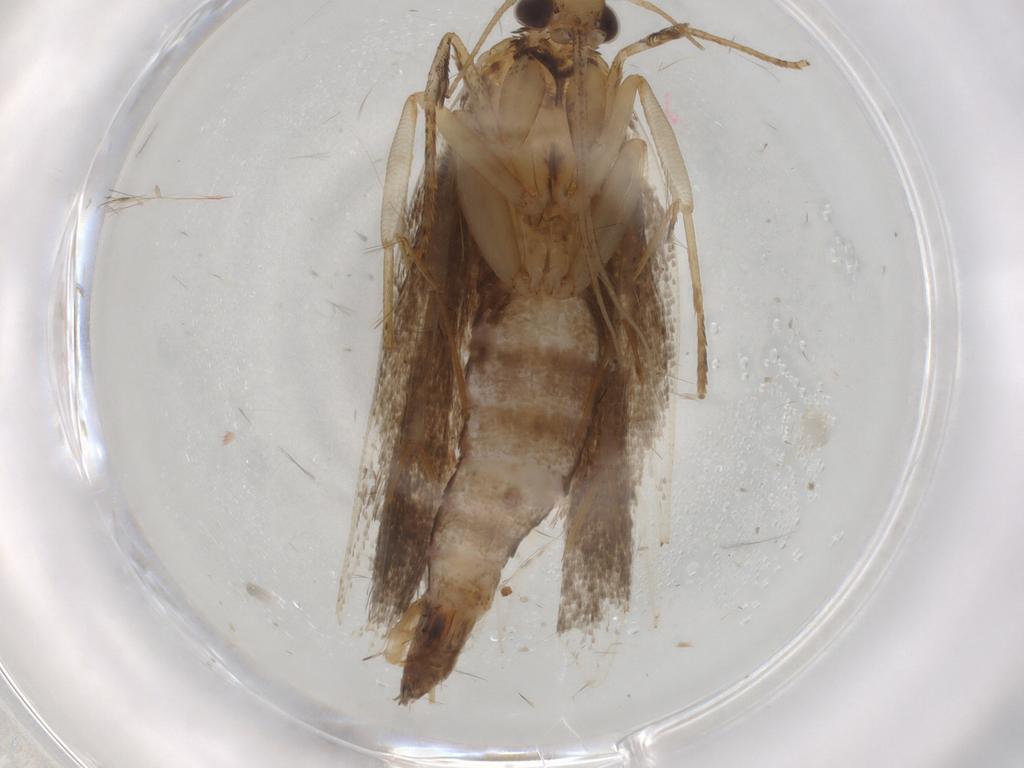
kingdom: Animalia
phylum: Arthropoda
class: Insecta
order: Lepidoptera
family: Pieridae
